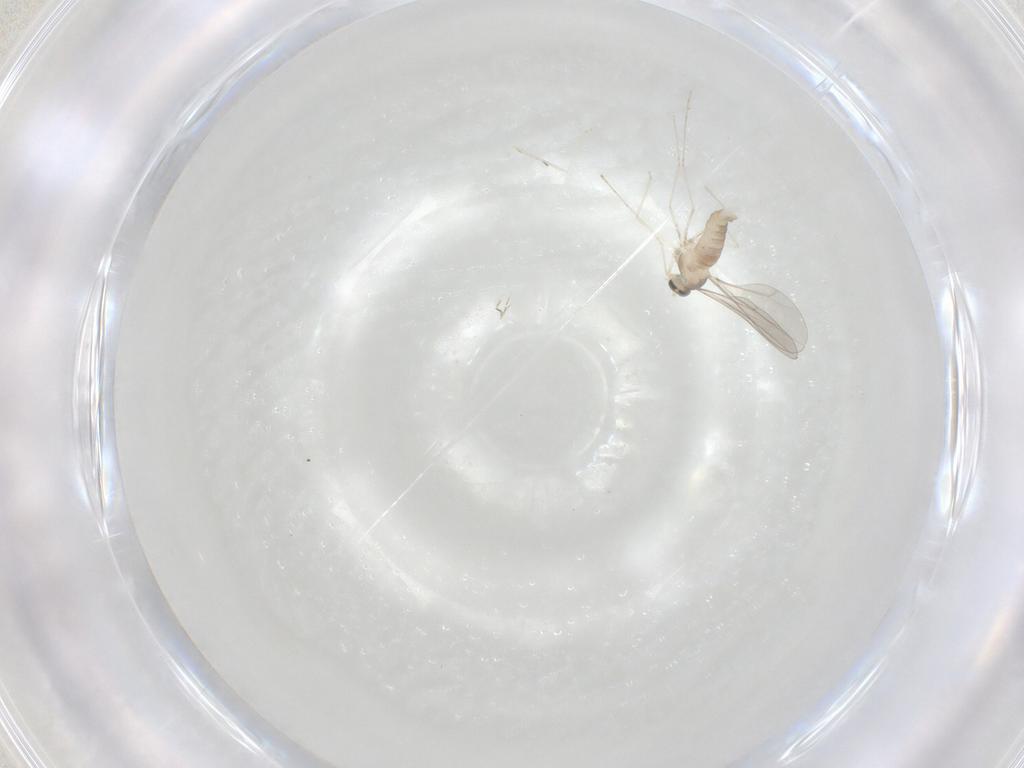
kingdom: Animalia
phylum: Arthropoda
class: Insecta
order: Diptera
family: Cecidomyiidae
